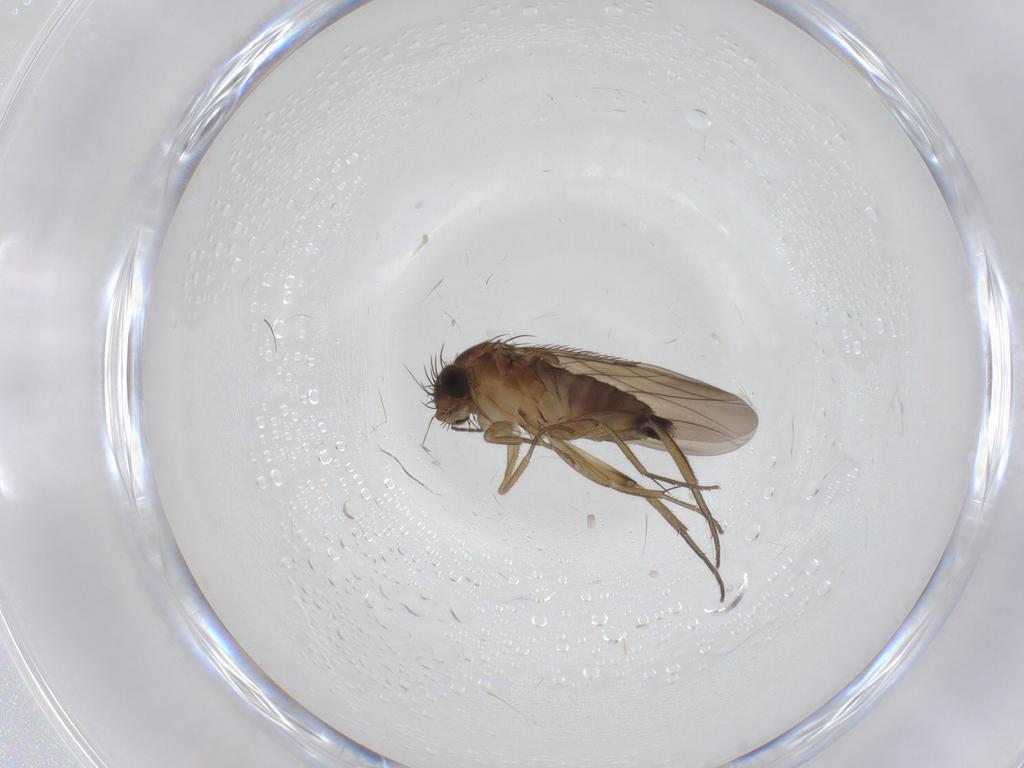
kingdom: Animalia
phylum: Arthropoda
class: Insecta
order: Diptera
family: Phoridae
